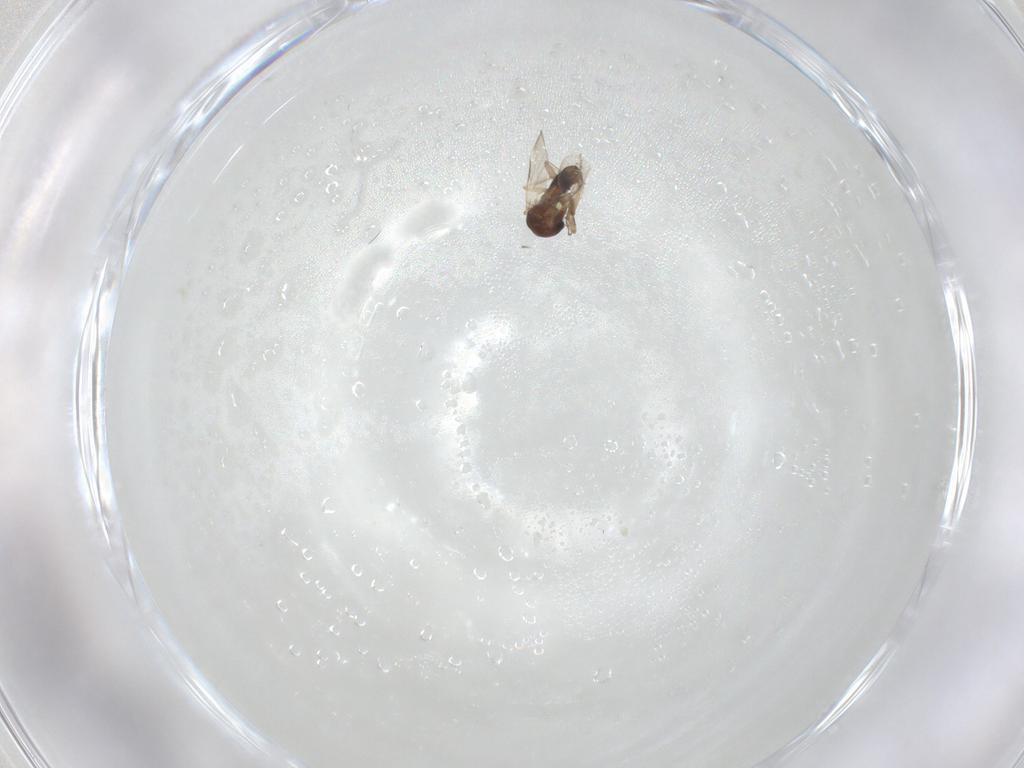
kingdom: Animalia
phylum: Arthropoda
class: Insecta
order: Diptera
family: Sciaridae
